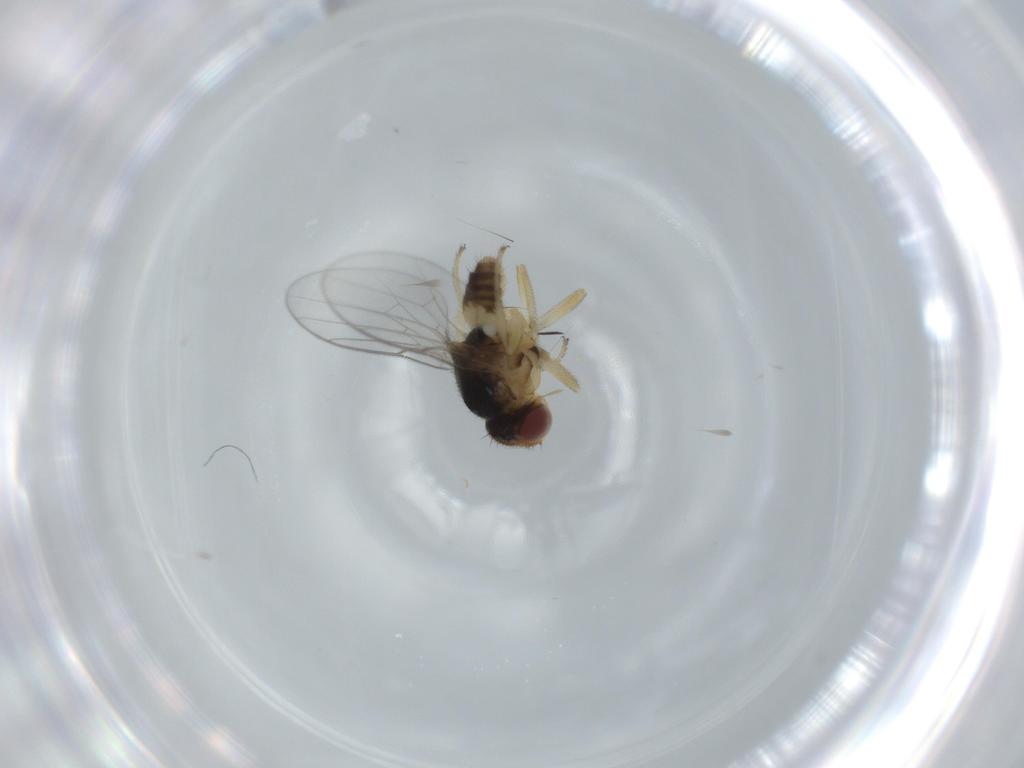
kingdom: Animalia
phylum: Arthropoda
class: Insecta
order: Diptera
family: Chloropidae
